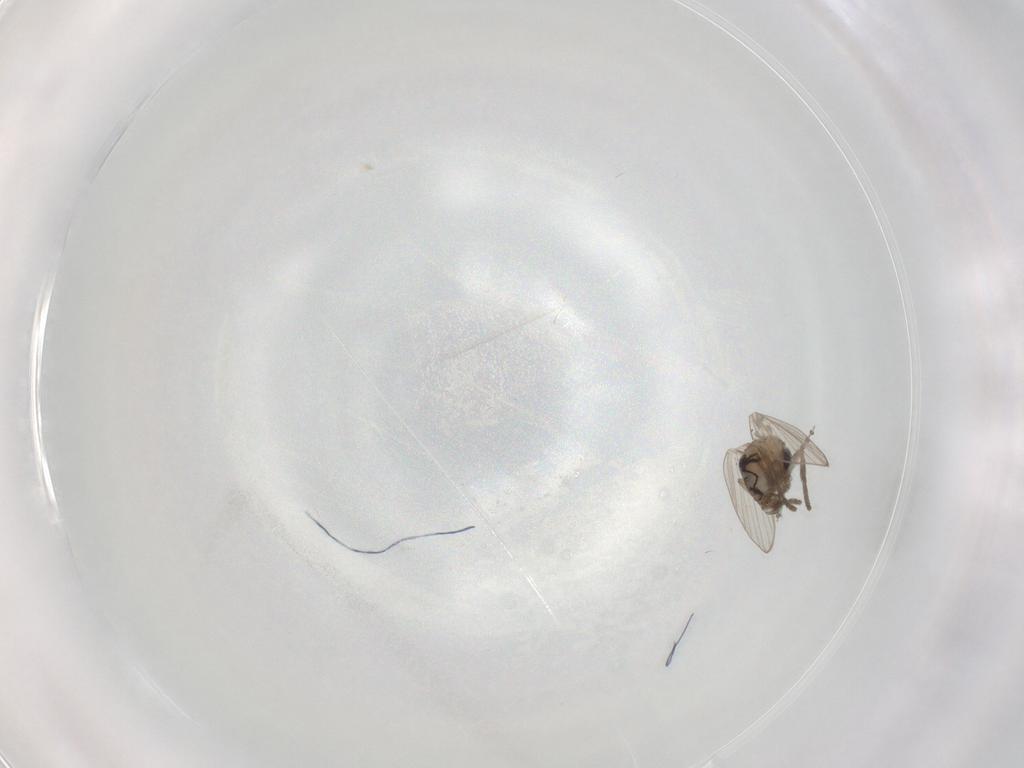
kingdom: Animalia
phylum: Arthropoda
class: Insecta
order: Diptera
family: Psychodidae
